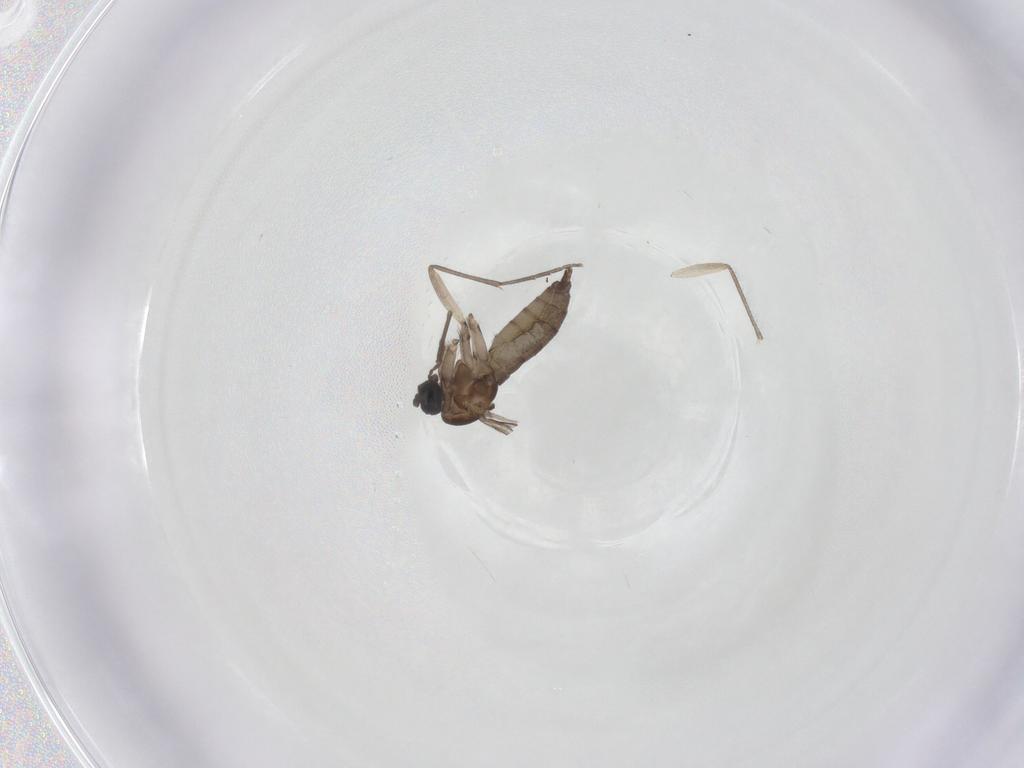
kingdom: Animalia
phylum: Arthropoda
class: Insecta
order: Diptera
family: Sciaridae
